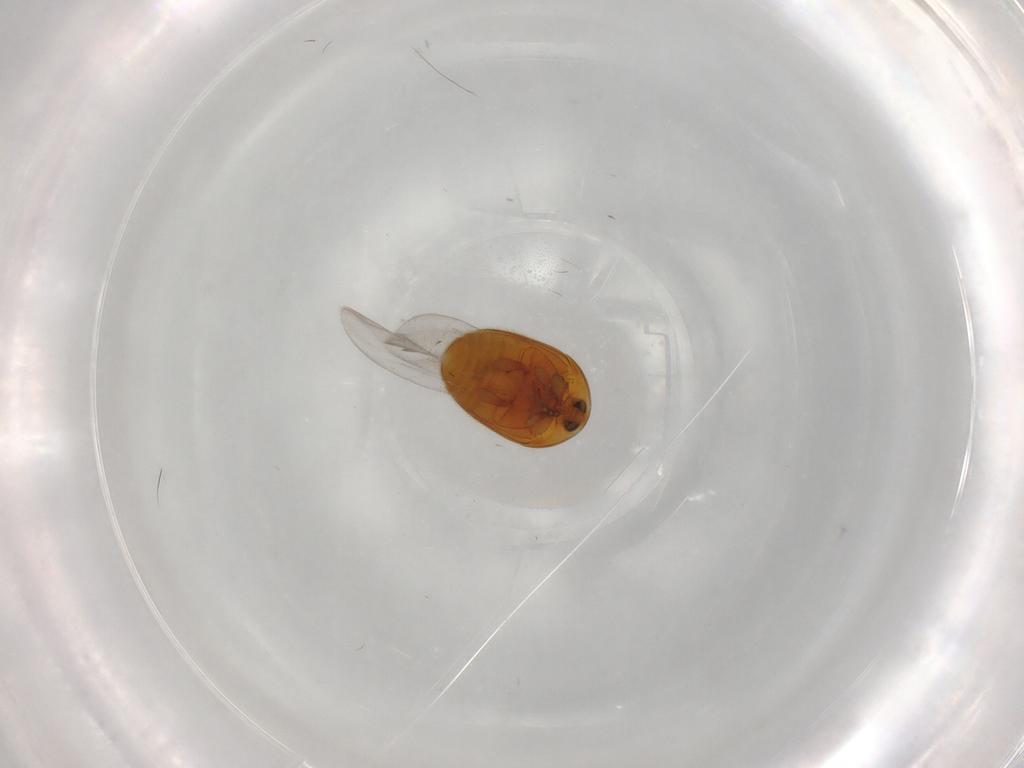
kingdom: Animalia
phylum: Arthropoda
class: Insecta
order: Coleoptera
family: Corylophidae
